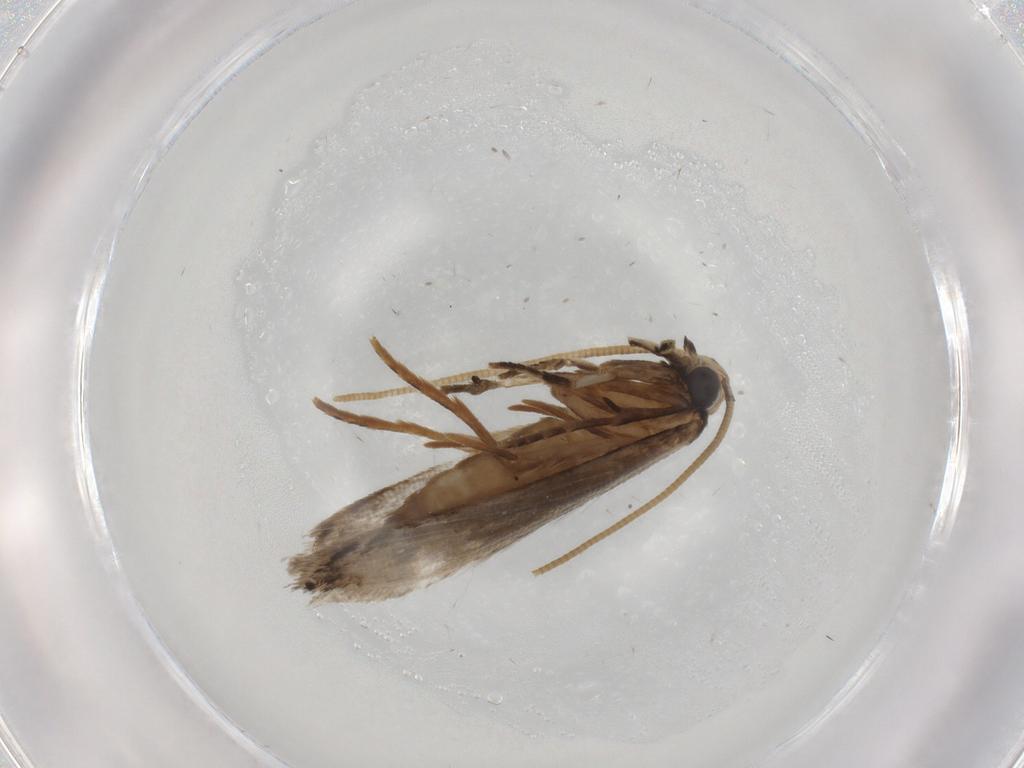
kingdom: Animalia
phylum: Arthropoda
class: Insecta
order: Lepidoptera
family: Tineidae
